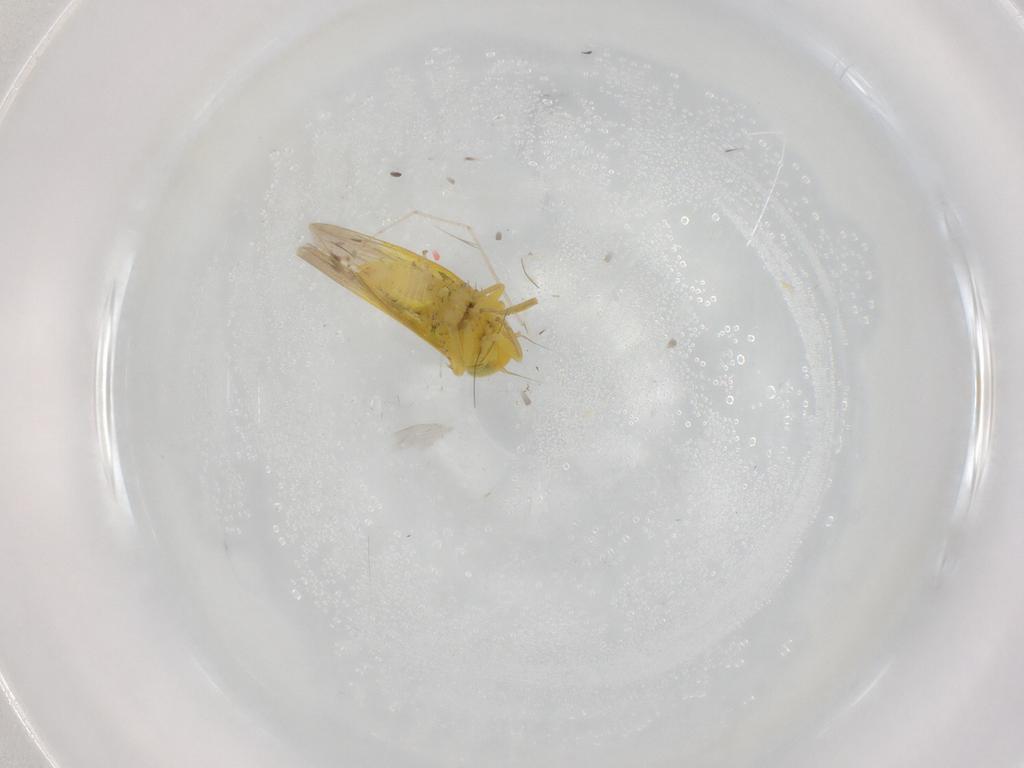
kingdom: Animalia
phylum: Arthropoda
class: Insecta
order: Diptera
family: Cecidomyiidae
